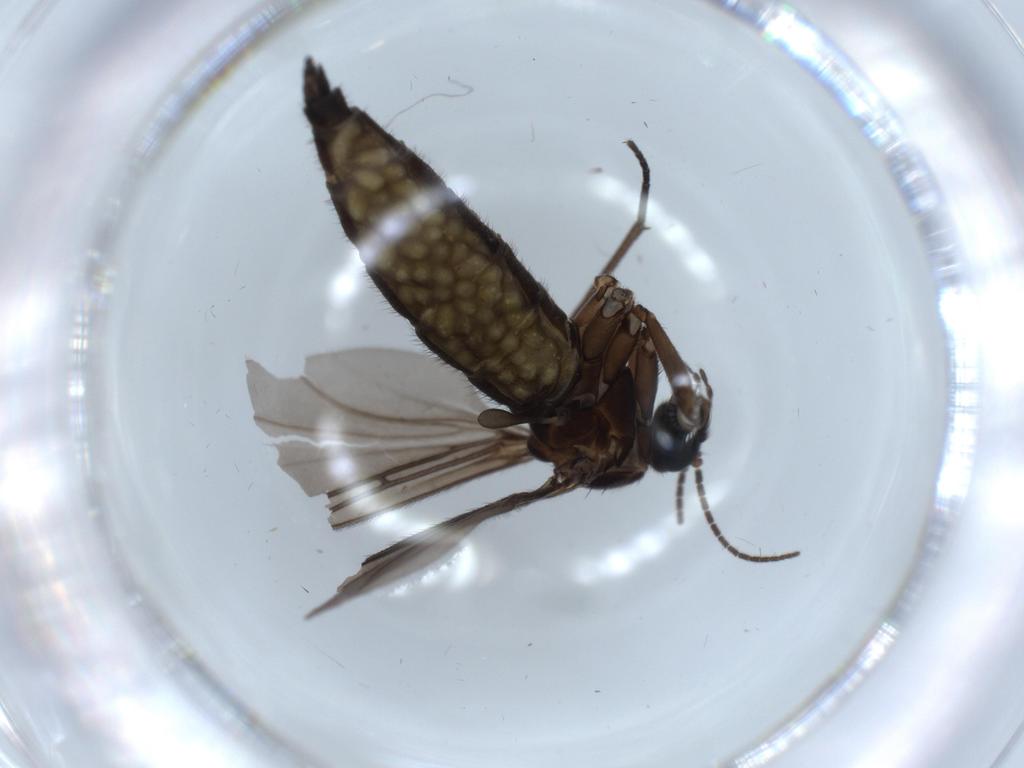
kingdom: Animalia
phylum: Arthropoda
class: Insecta
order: Diptera
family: Sciaridae
